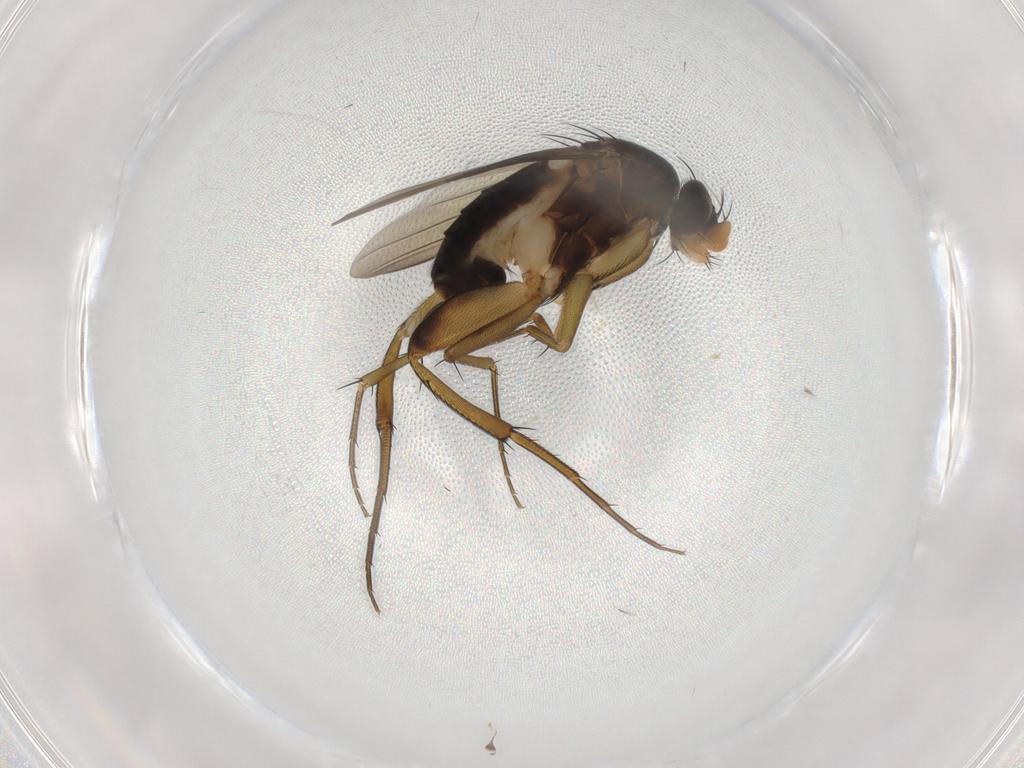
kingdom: Animalia
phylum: Arthropoda
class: Insecta
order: Diptera
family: Phoridae
